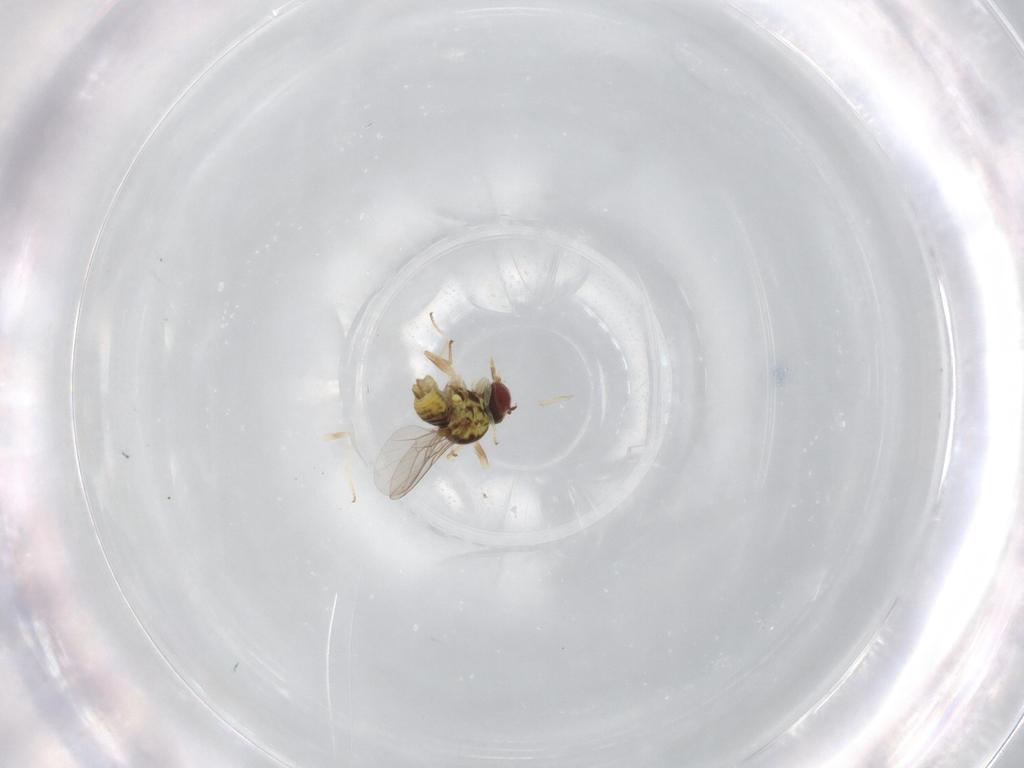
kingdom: Animalia
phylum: Arthropoda
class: Insecta
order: Diptera
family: Bombyliidae
